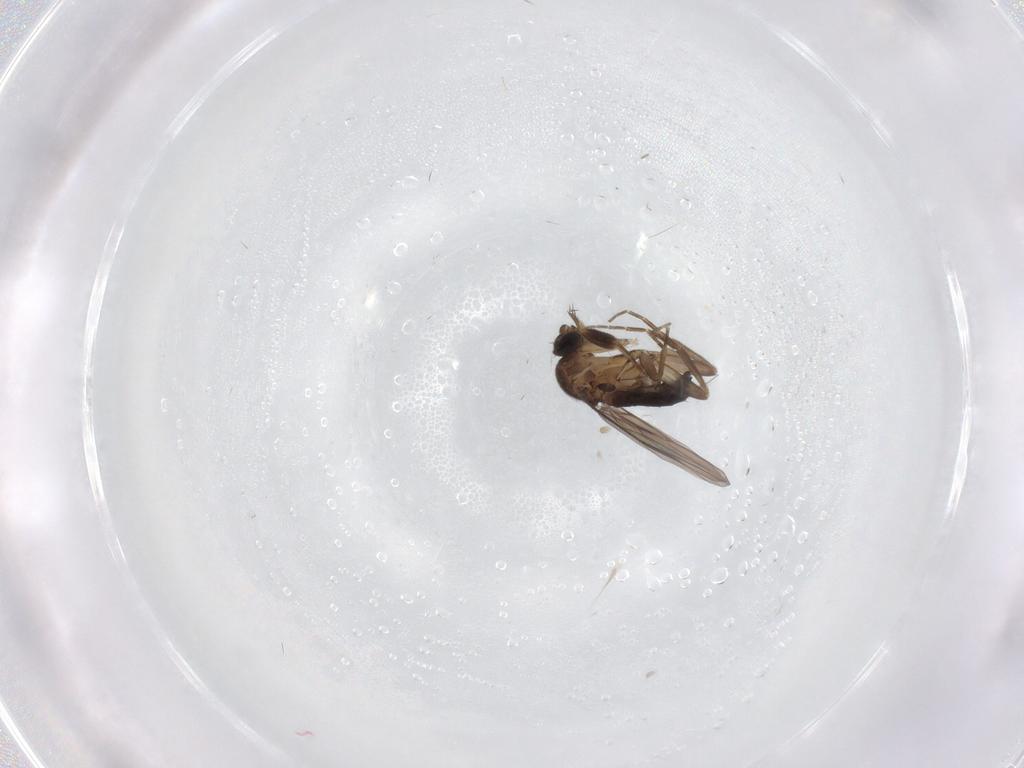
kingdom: Animalia
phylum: Arthropoda
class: Insecta
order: Diptera
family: Phoridae
